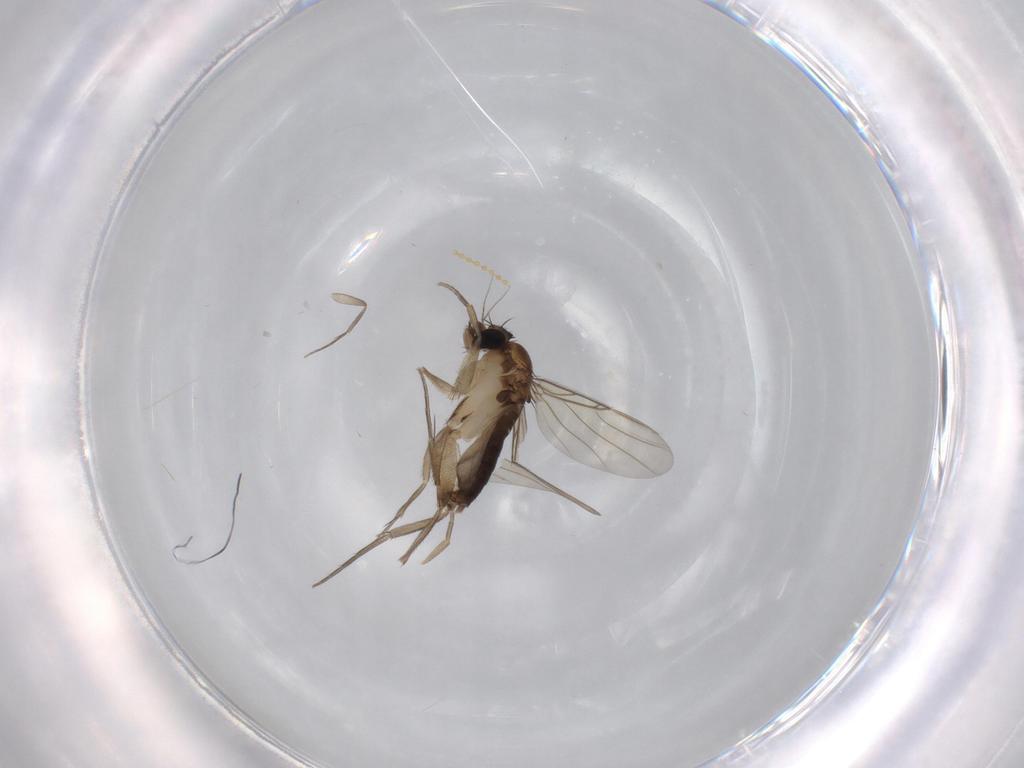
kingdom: Animalia
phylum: Arthropoda
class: Insecta
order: Diptera
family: Phoridae
